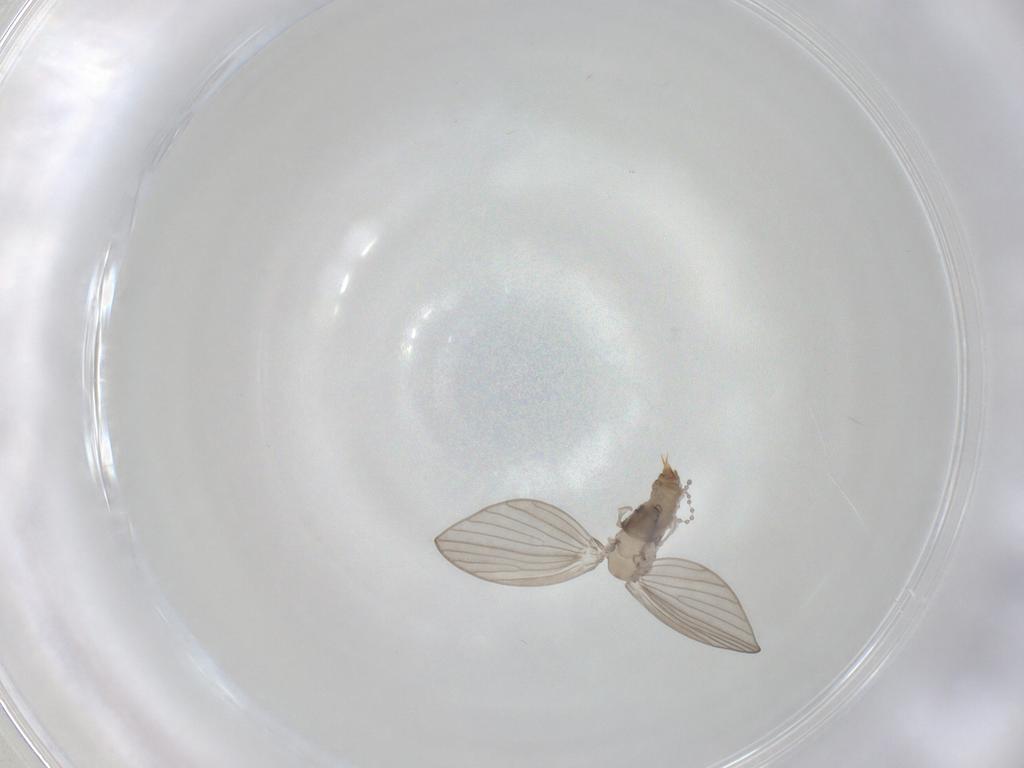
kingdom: Animalia
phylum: Arthropoda
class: Insecta
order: Diptera
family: Psychodidae
